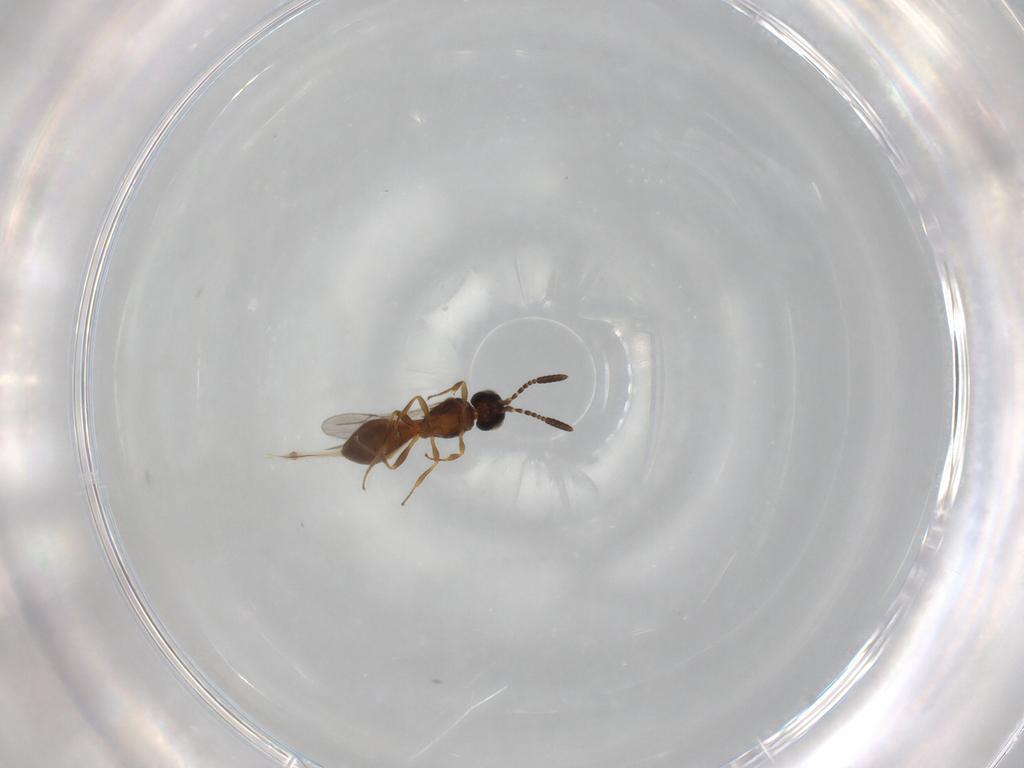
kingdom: Animalia
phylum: Arthropoda
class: Insecta
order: Hymenoptera
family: Scelionidae
